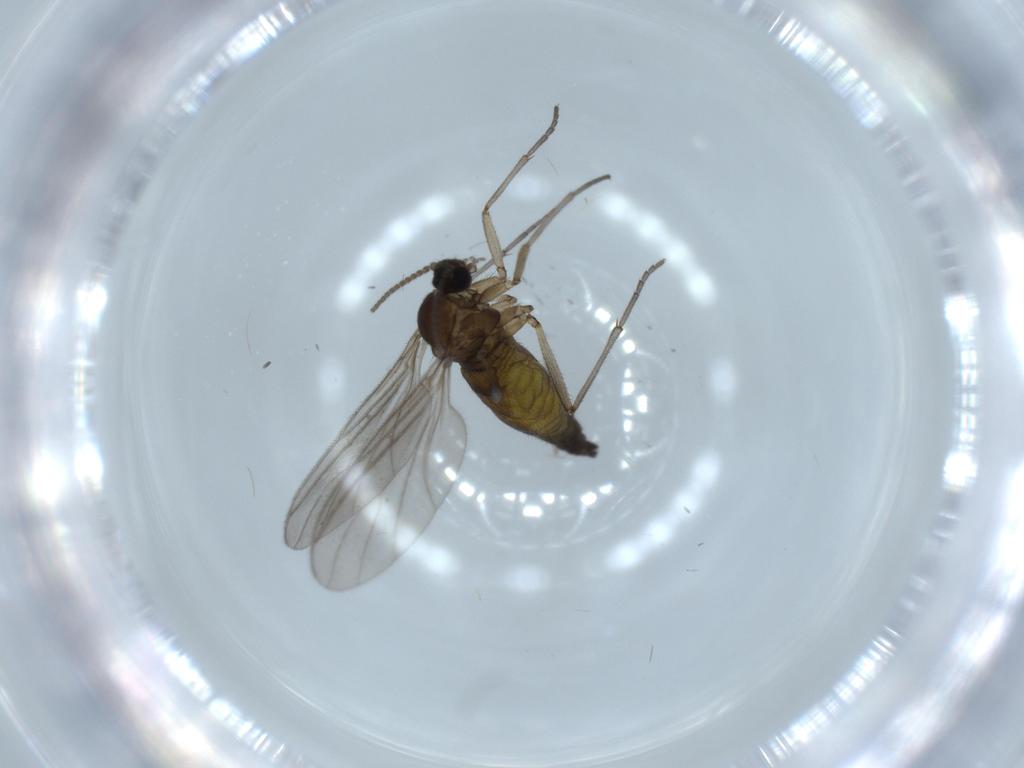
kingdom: Animalia
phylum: Arthropoda
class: Insecta
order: Diptera
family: Sciaridae
